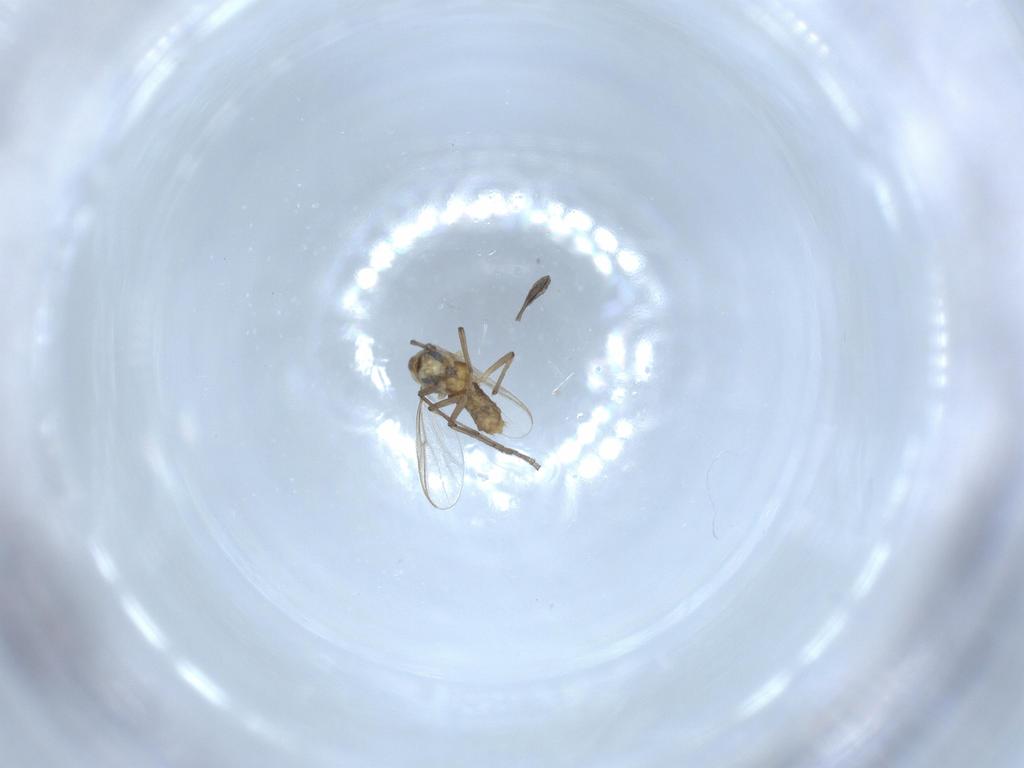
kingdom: Animalia
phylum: Arthropoda
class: Insecta
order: Diptera
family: Chironomidae
